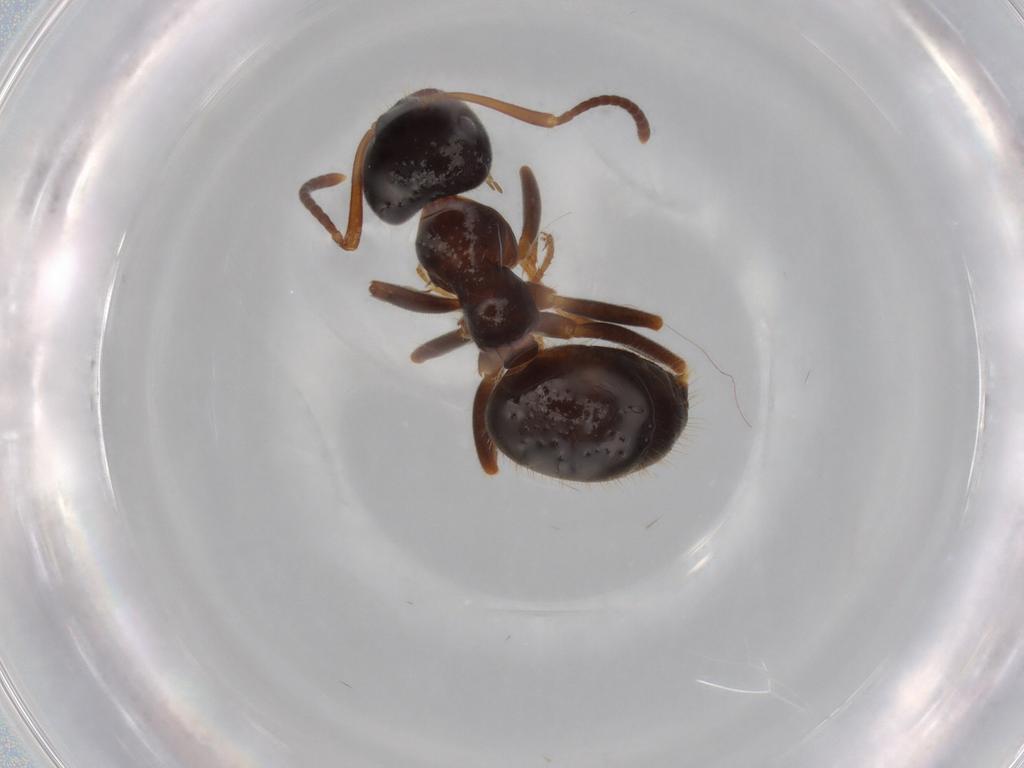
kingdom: Animalia
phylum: Arthropoda
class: Insecta
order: Hymenoptera
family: Formicidae
